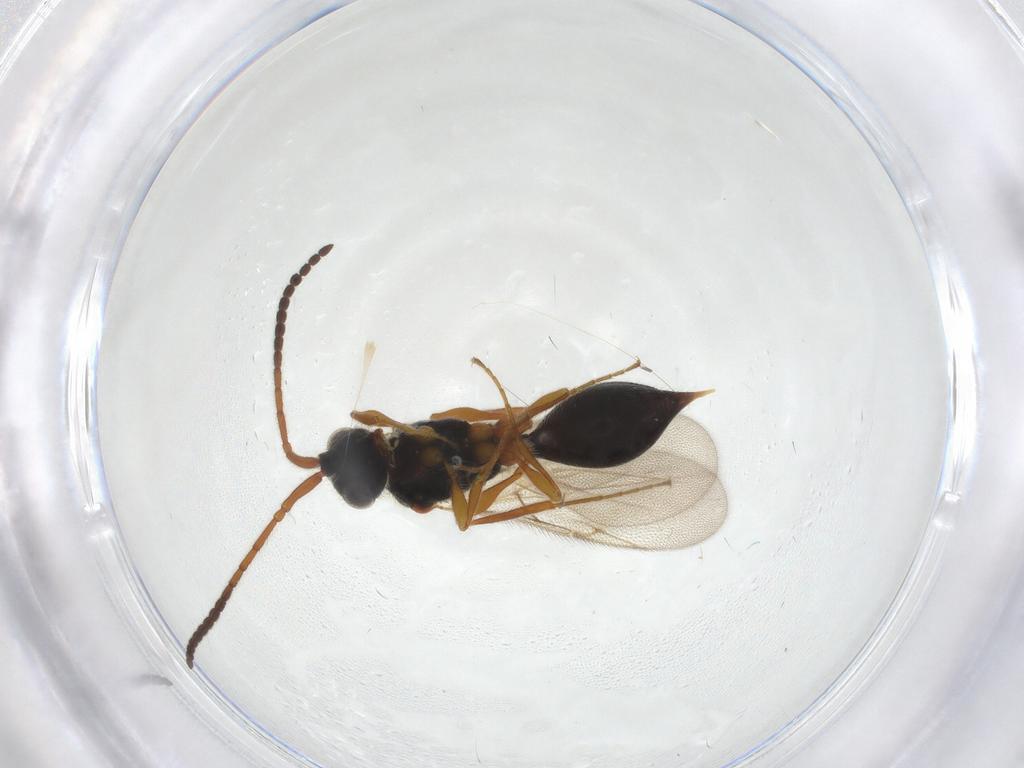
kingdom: Animalia
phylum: Arthropoda
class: Insecta
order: Hymenoptera
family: Diapriidae
